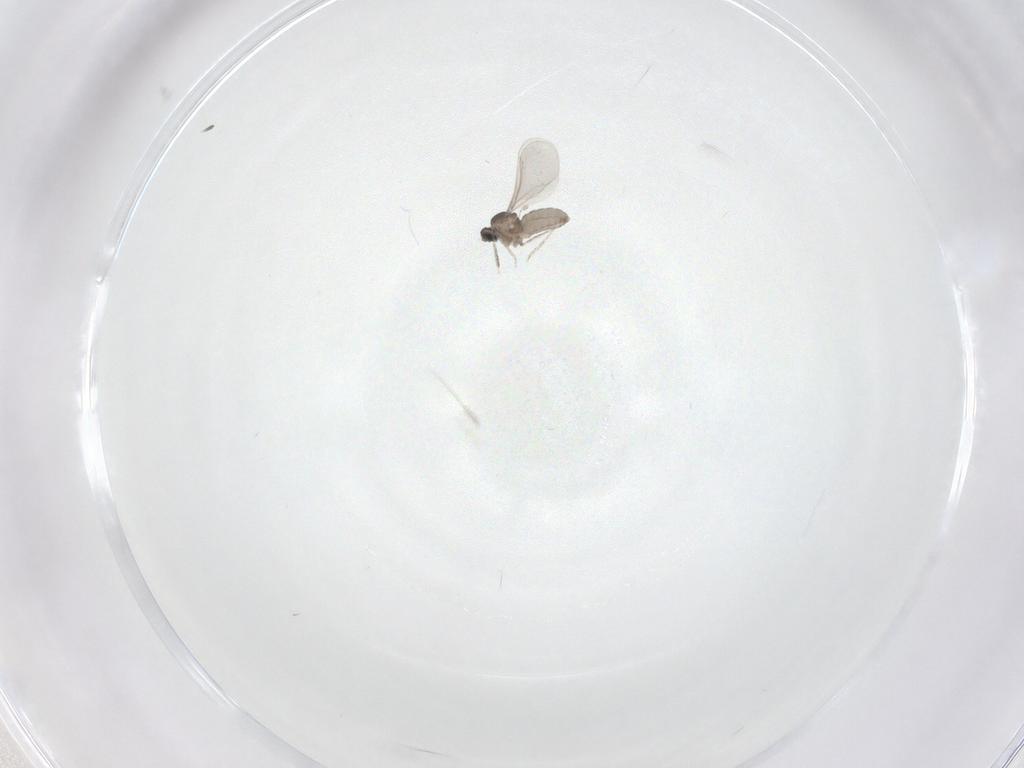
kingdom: Animalia
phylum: Arthropoda
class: Insecta
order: Diptera
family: Cecidomyiidae
